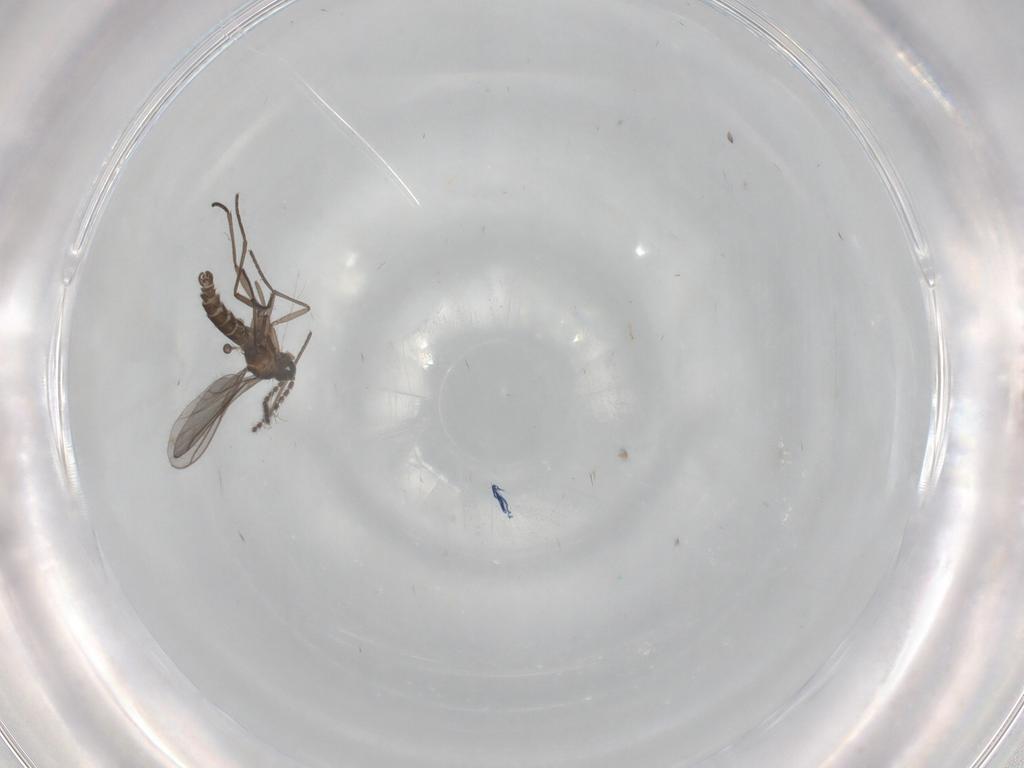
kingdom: Animalia
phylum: Arthropoda
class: Insecta
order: Diptera
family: Cecidomyiidae
